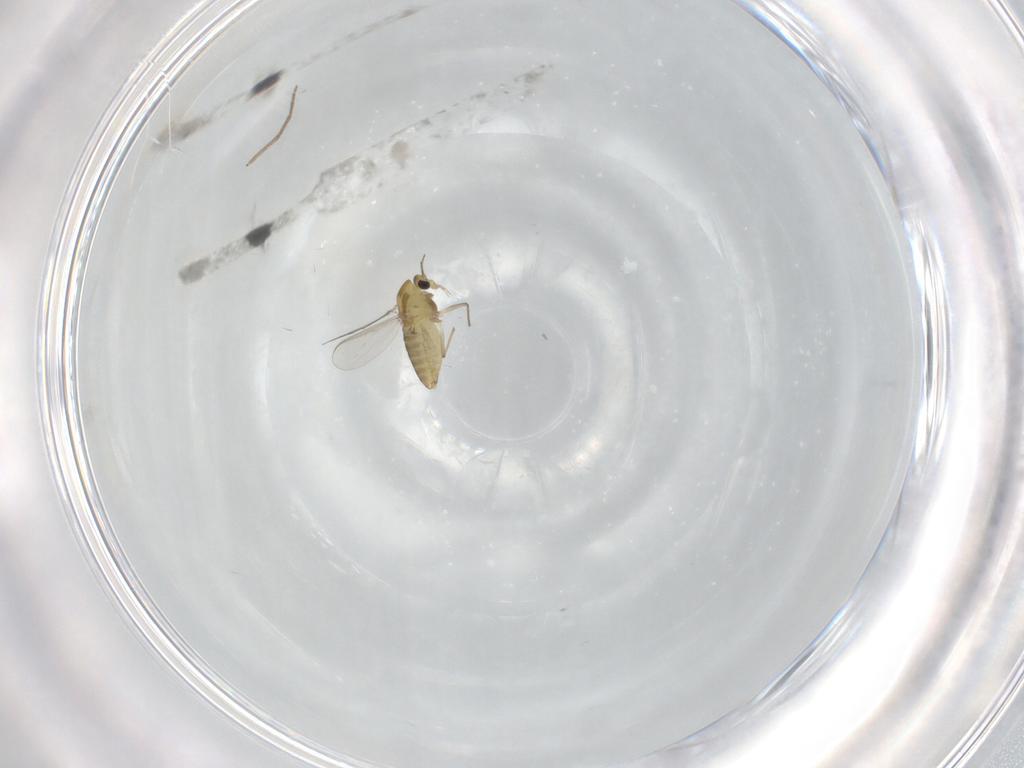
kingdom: Animalia
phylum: Arthropoda
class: Insecta
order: Diptera
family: Chironomidae
